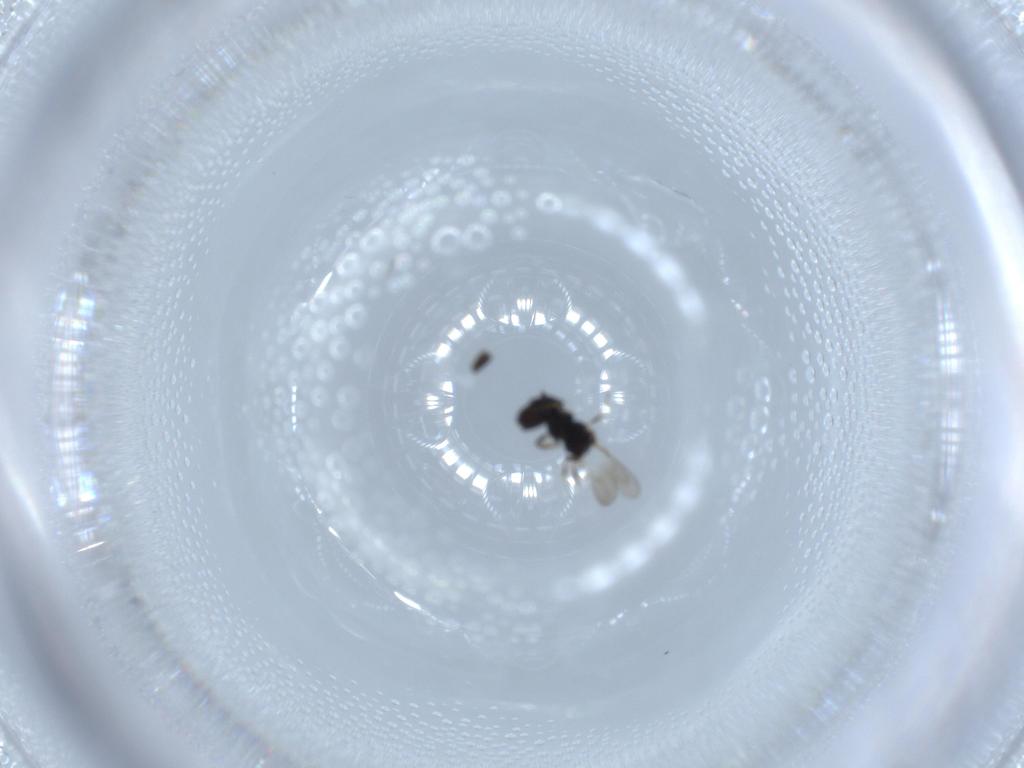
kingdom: Animalia
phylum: Arthropoda
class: Insecta
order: Hymenoptera
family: Scelionidae
